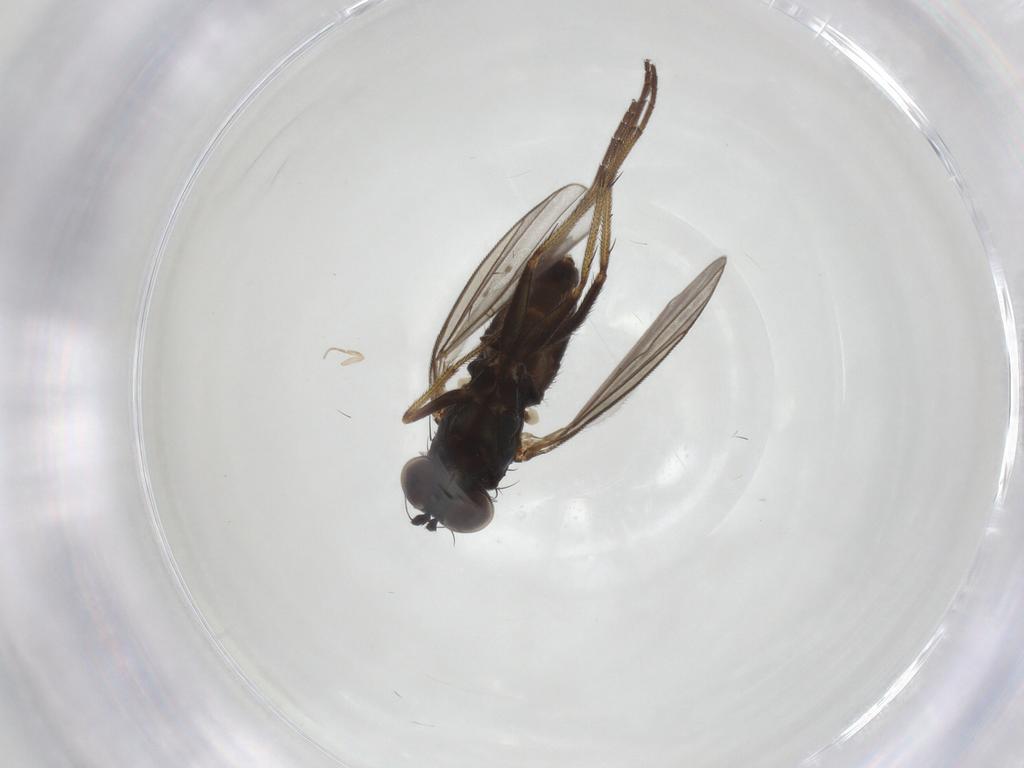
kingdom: Animalia
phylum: Arthropoda
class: Insecta
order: Diptera
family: Dolichopodidae
